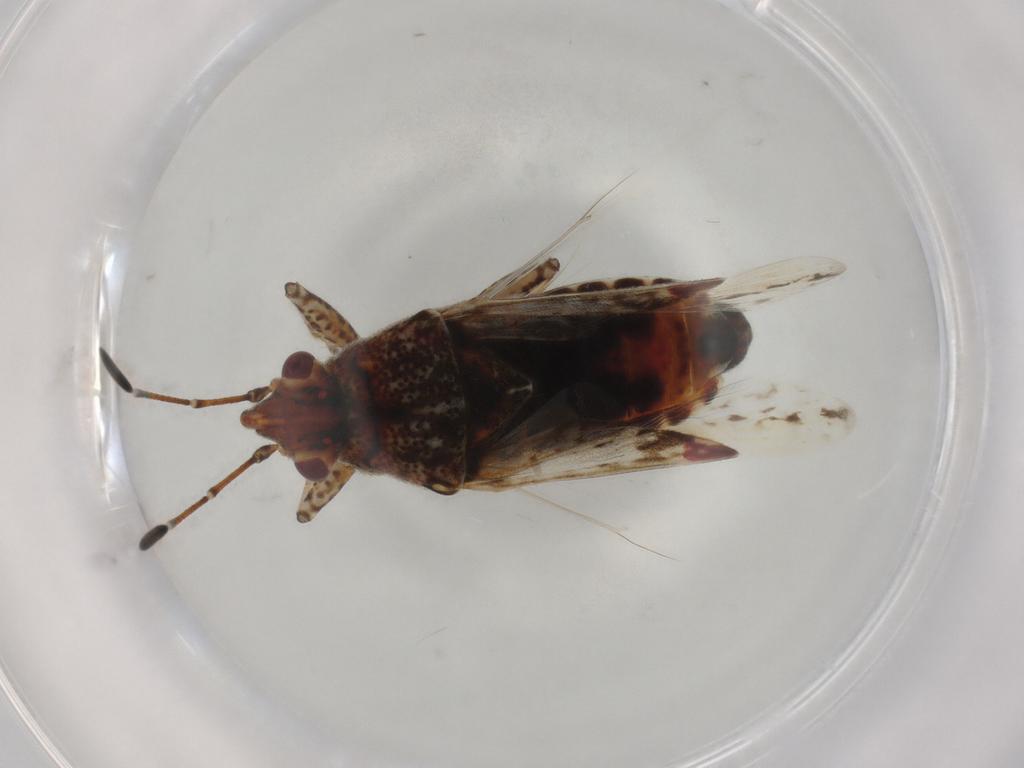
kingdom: Animalia
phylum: Arthropoda
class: Insecta
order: Hemiptera
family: Lygaeidae
